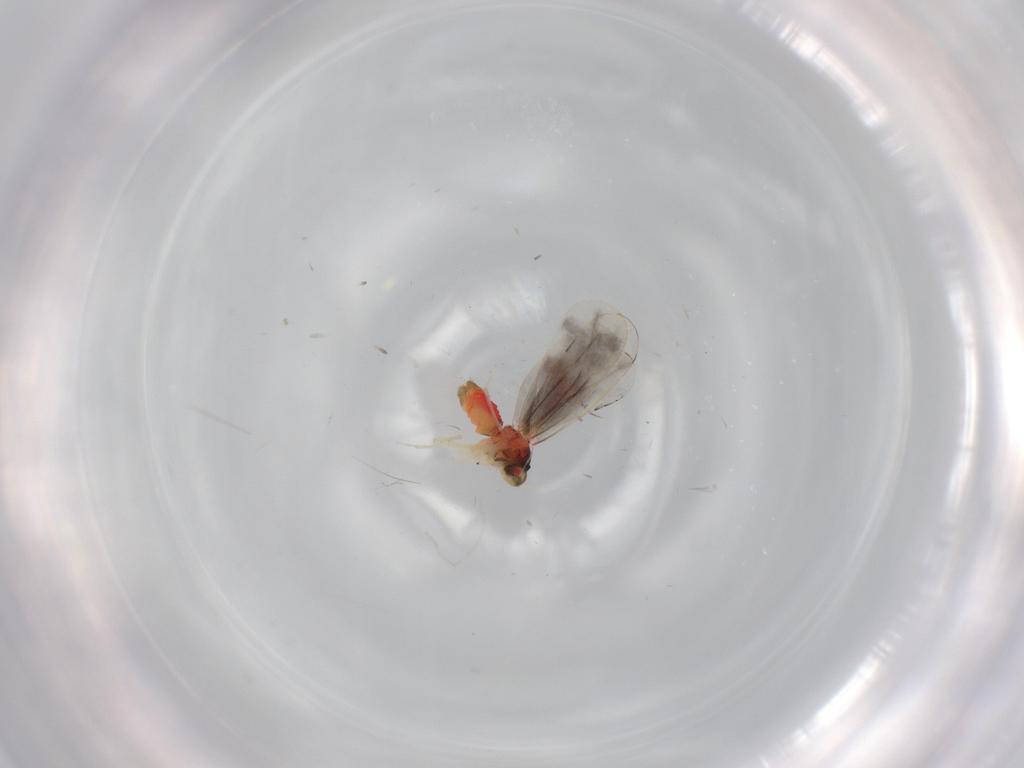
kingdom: Animalia
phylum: Arthropoda
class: Insecta
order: Hemiptera
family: Aleyrodidae
